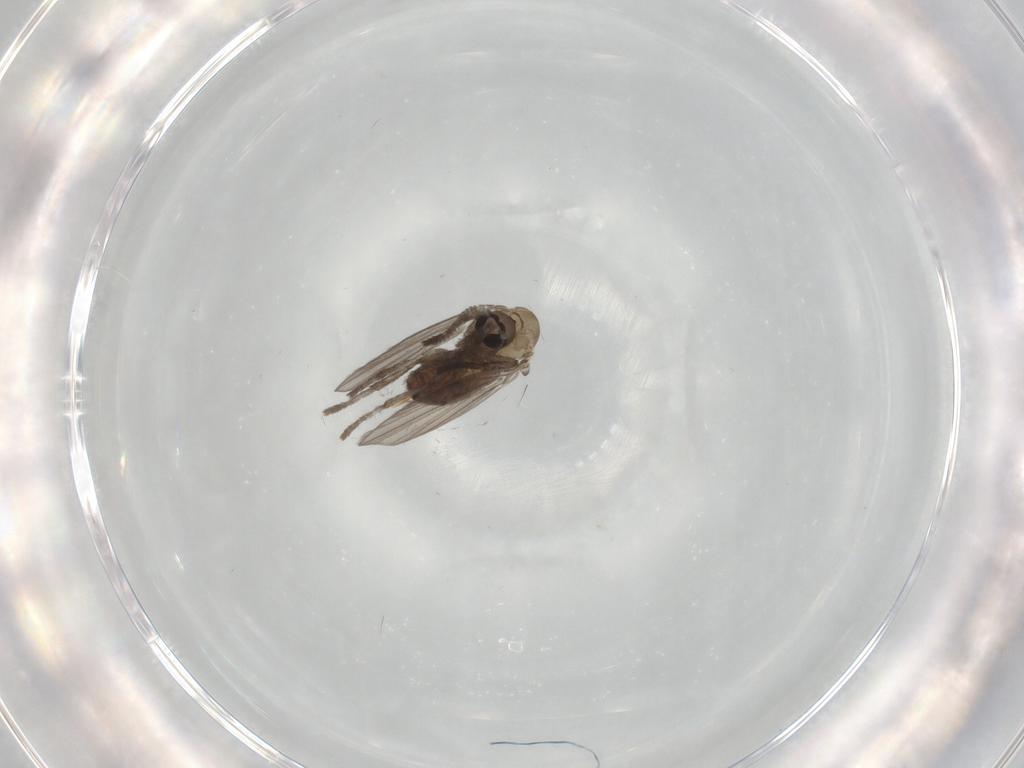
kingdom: Animalia
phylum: Arthropoda
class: Insecta
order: Diptera
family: Psychodidae
